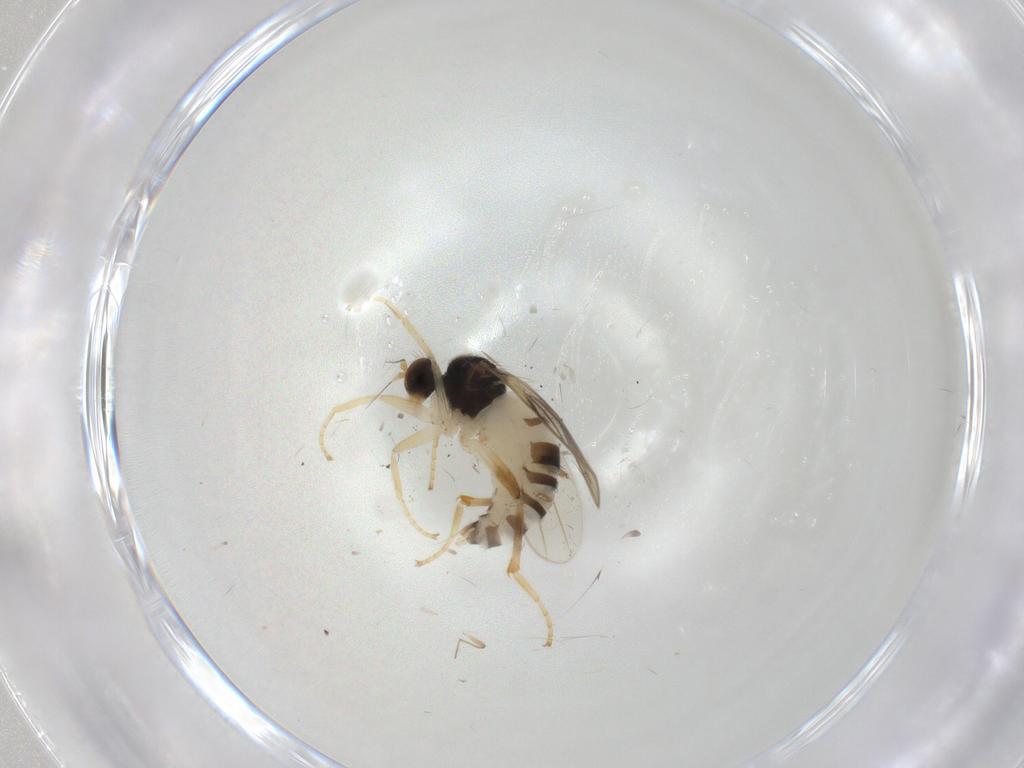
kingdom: Animalia
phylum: Arthropoda
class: Insecta
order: Diptera
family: Hybotidae
